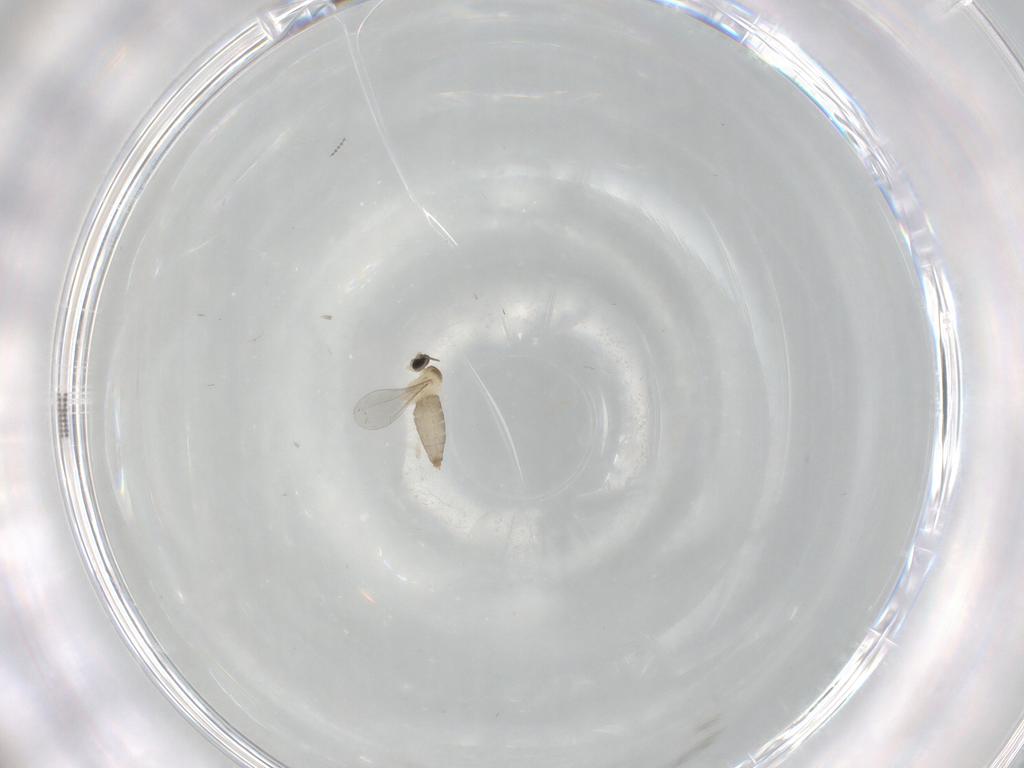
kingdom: Animalia
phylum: Arthropoda
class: Insecta
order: Diptera
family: Cecidomyiidae
